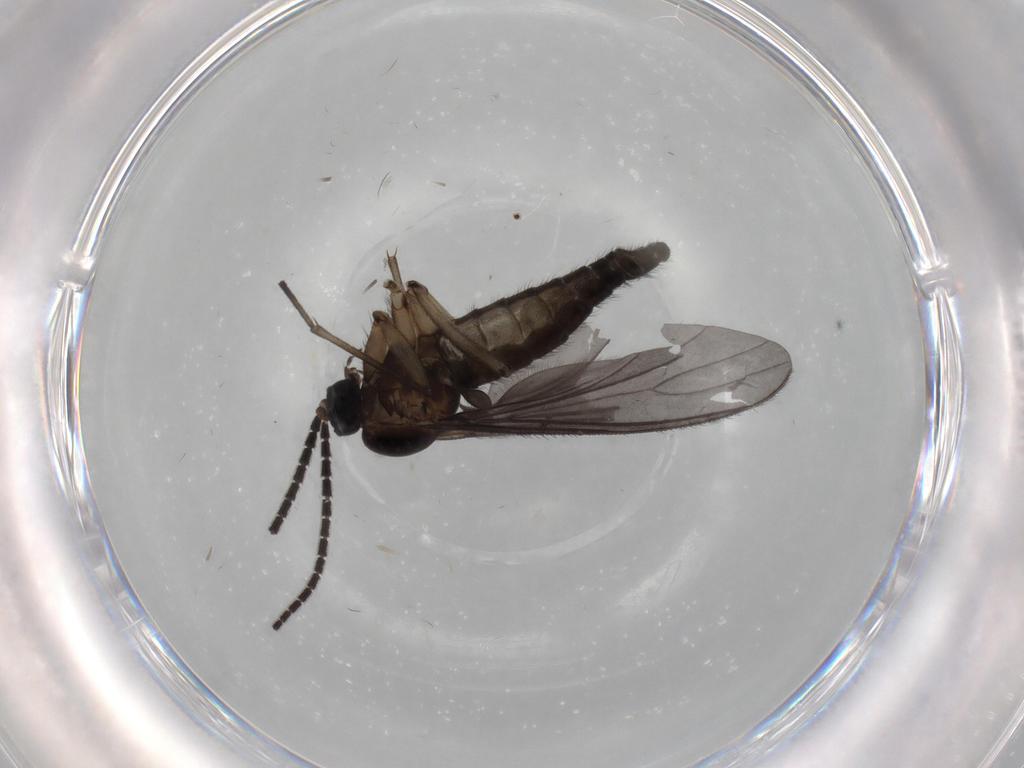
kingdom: Animalia
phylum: Arthropoda
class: Insecta
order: Diptera
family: Sciaridae
